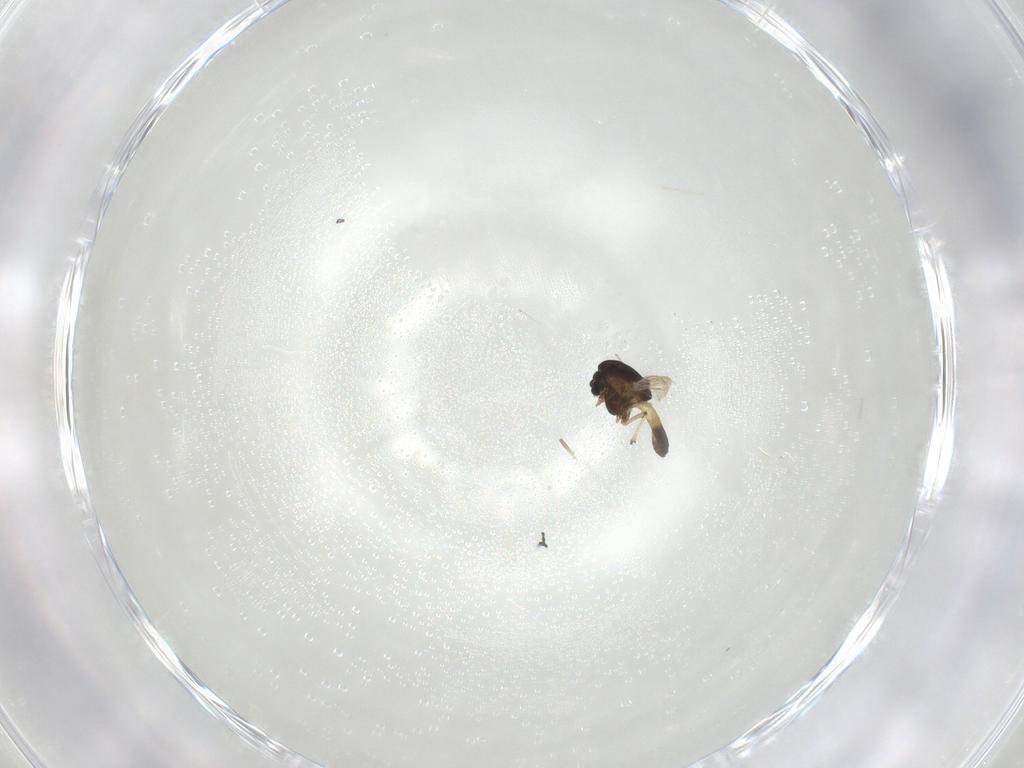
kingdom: Animalia
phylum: Arthropoda
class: Insecta
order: Diptera
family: Chironomidae
